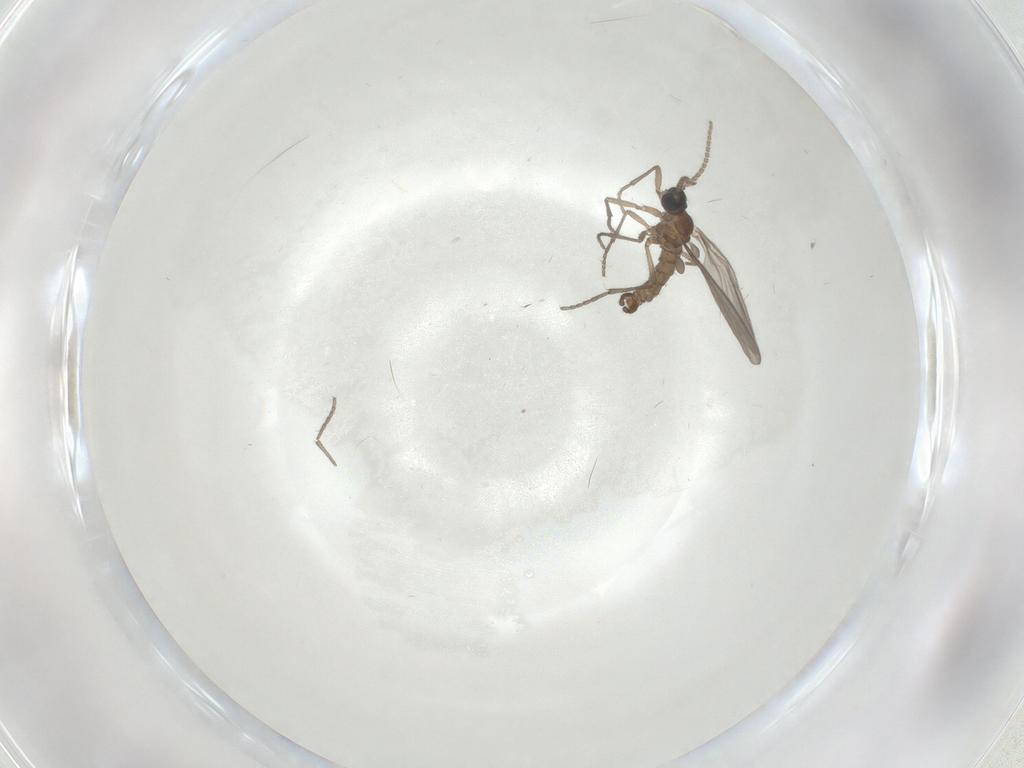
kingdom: Animalia
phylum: Arthropoda
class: Insecta
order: Diptera
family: Sciaridae
